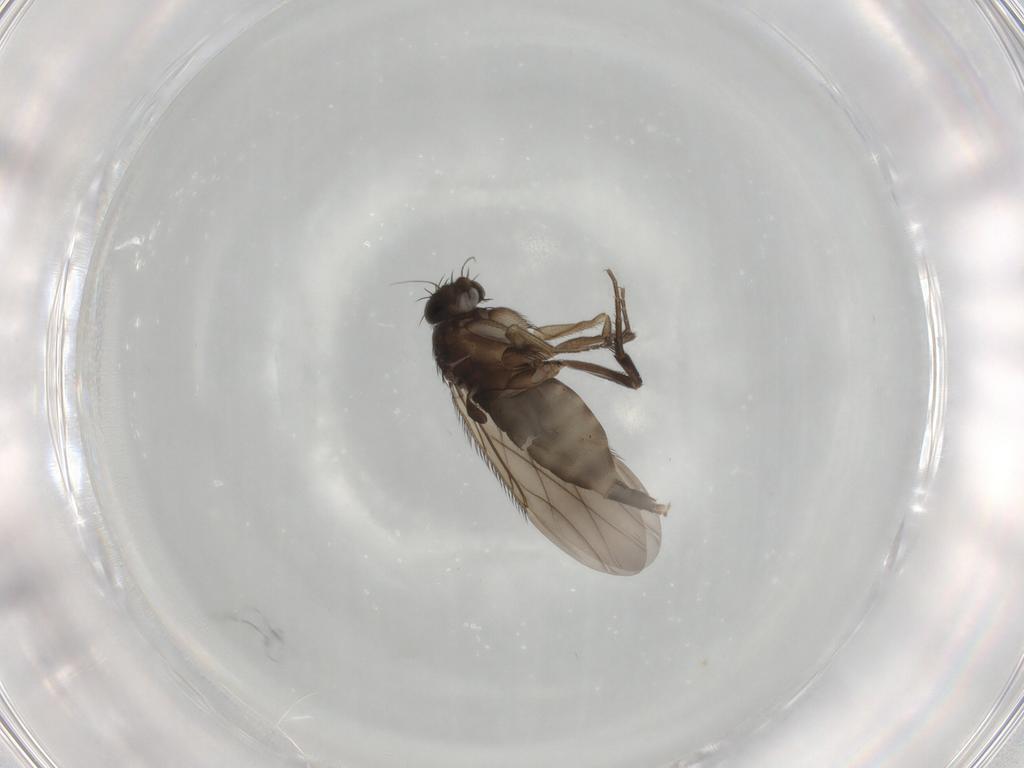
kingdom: Animalia
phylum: Arthropoda
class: Insecta
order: Diptera
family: Phoridae
